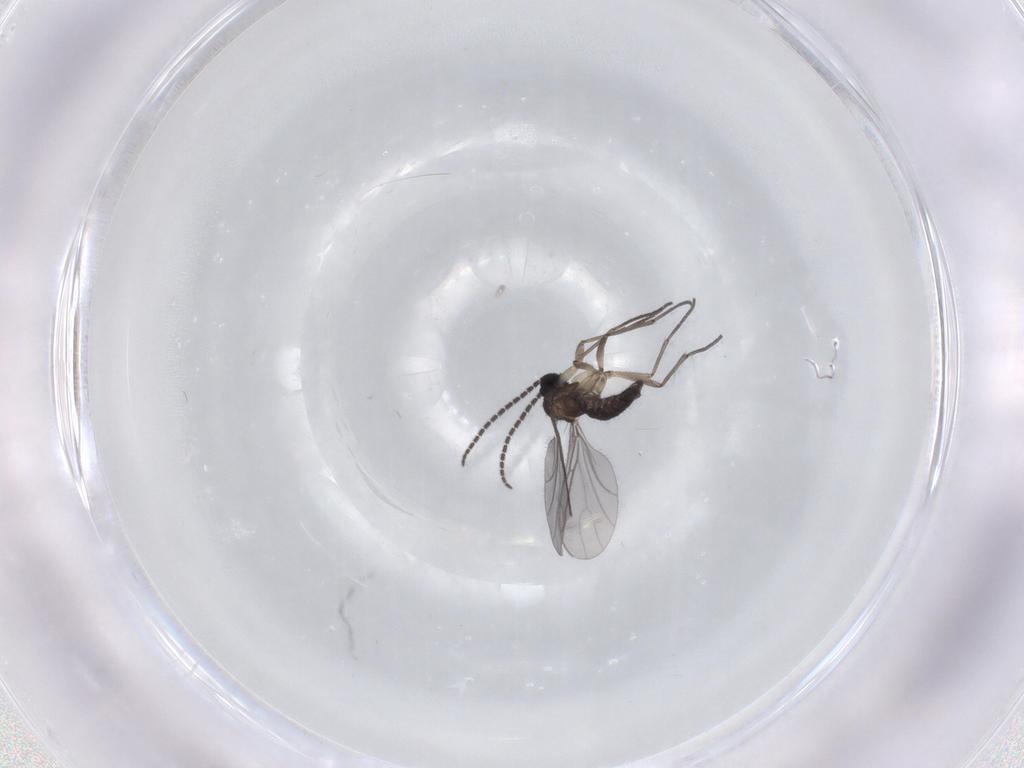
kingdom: Animalia
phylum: Arthropoda
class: Insecta
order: Diptera
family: Sciaridae
